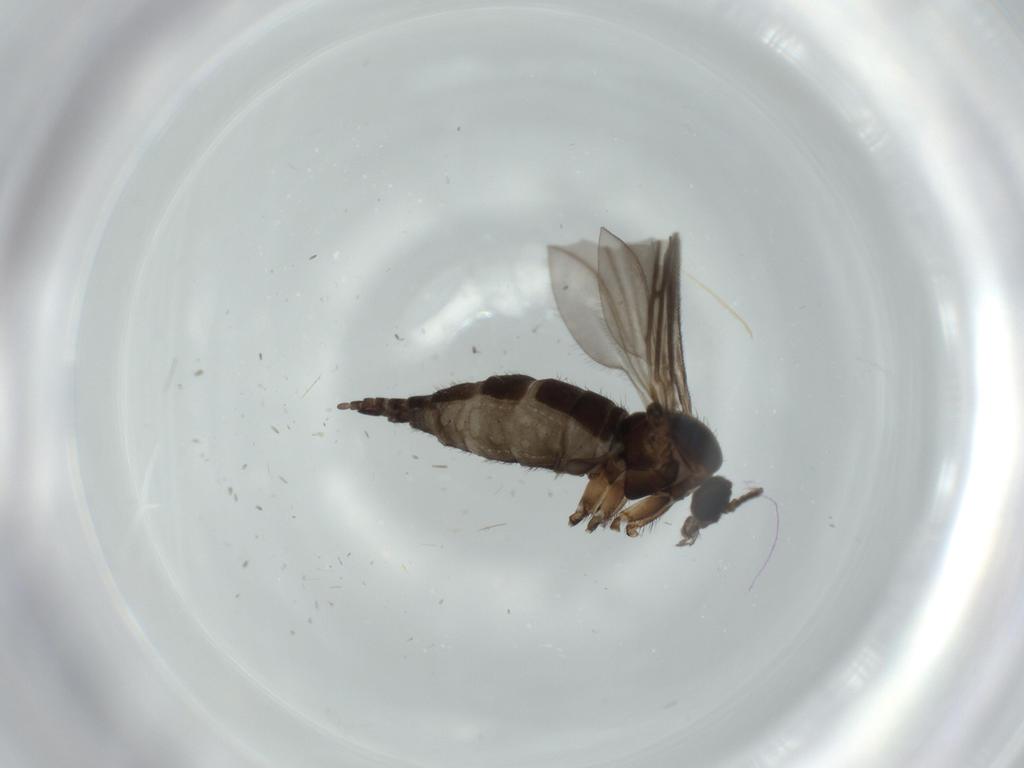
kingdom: Animalia
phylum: Arthropoda
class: Insecta
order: Diptera
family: Sciaridae
